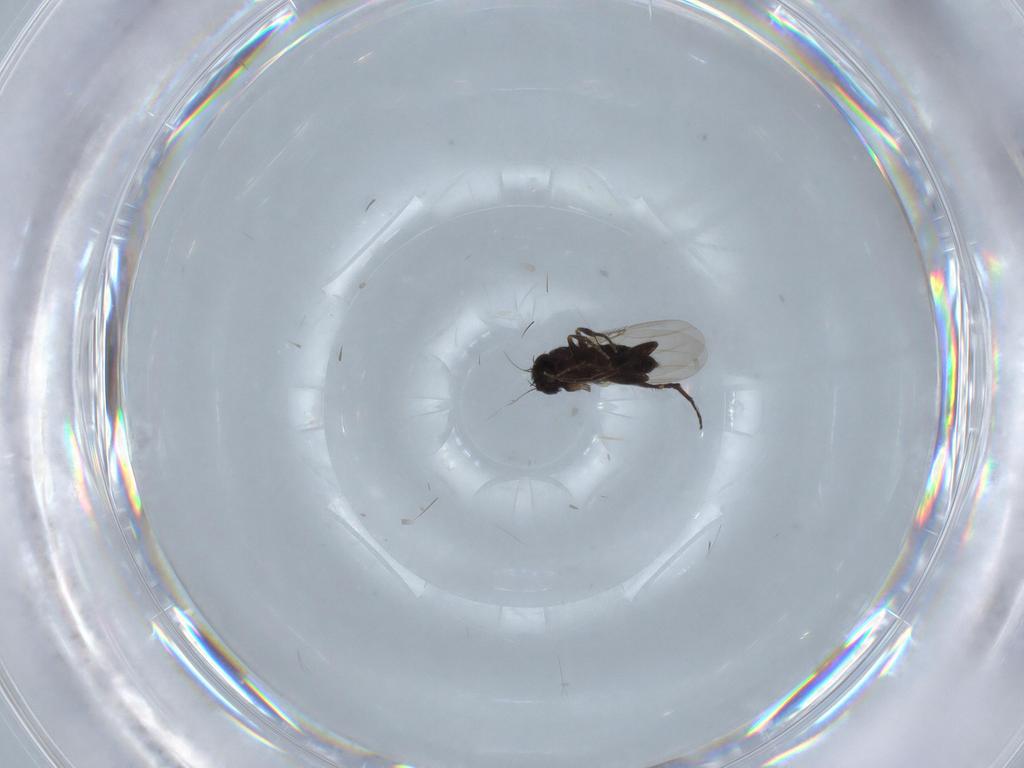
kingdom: Animalia
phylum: Arthropoda
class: Insecta
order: Diptera
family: Phoridae
